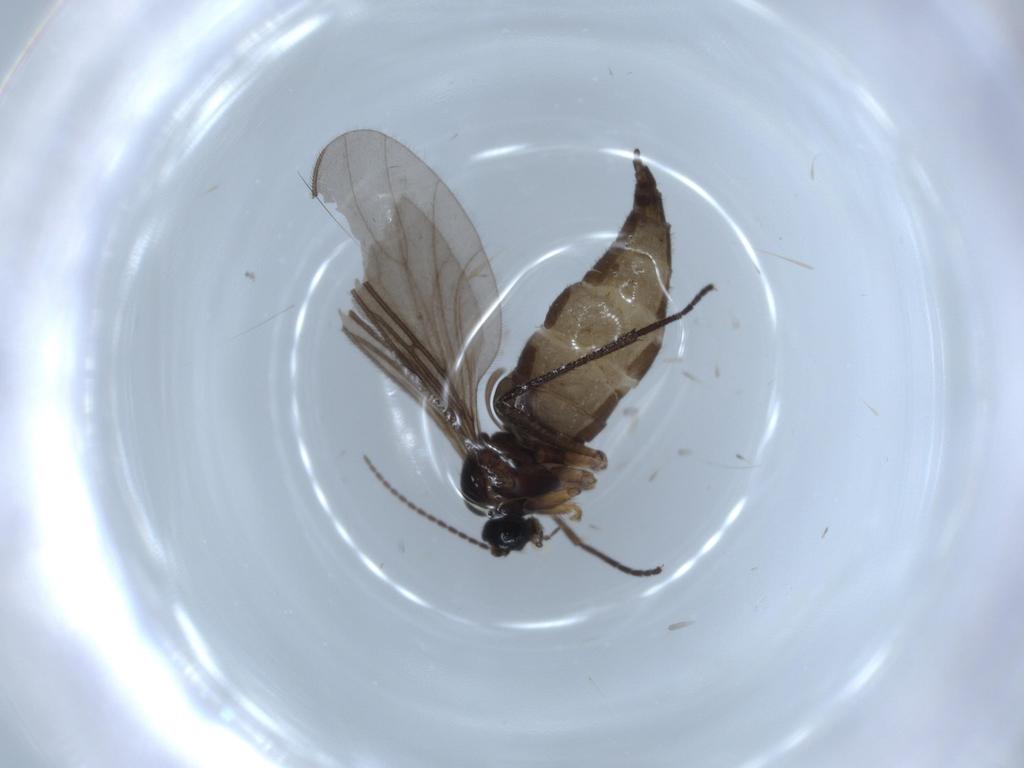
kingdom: Animalia
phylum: Arthropoda
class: Insecta
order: Diptera
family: Sciaridae
